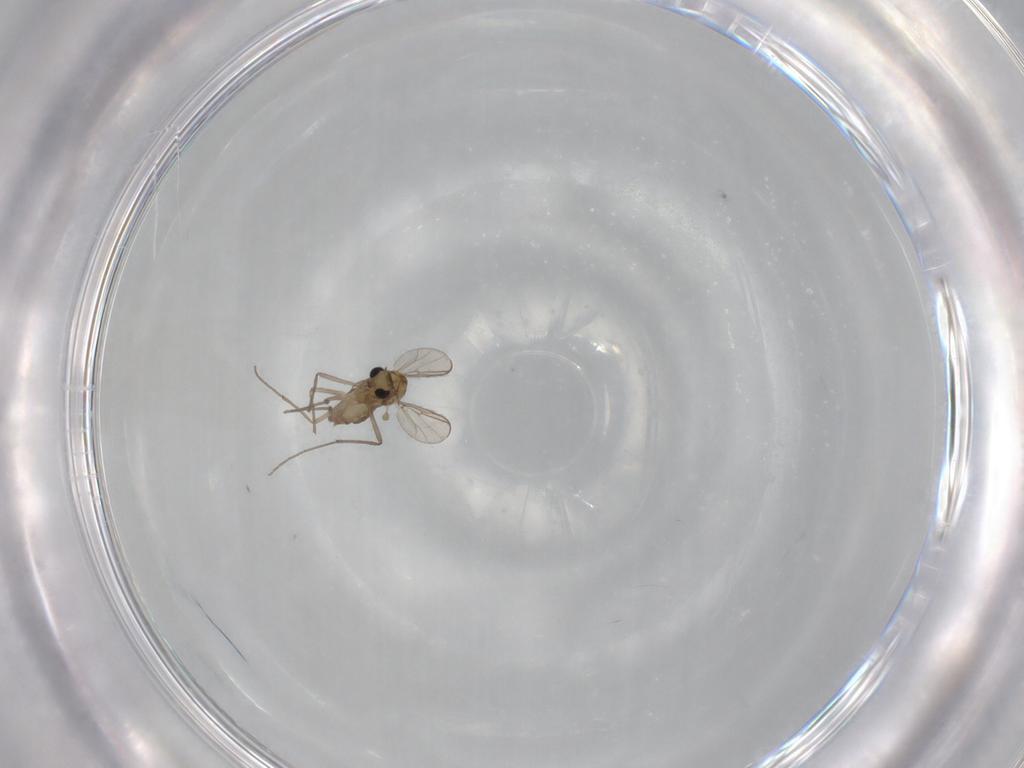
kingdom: Animalia
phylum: Arthropoda
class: Insecta
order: Diptera
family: Chironomidae
